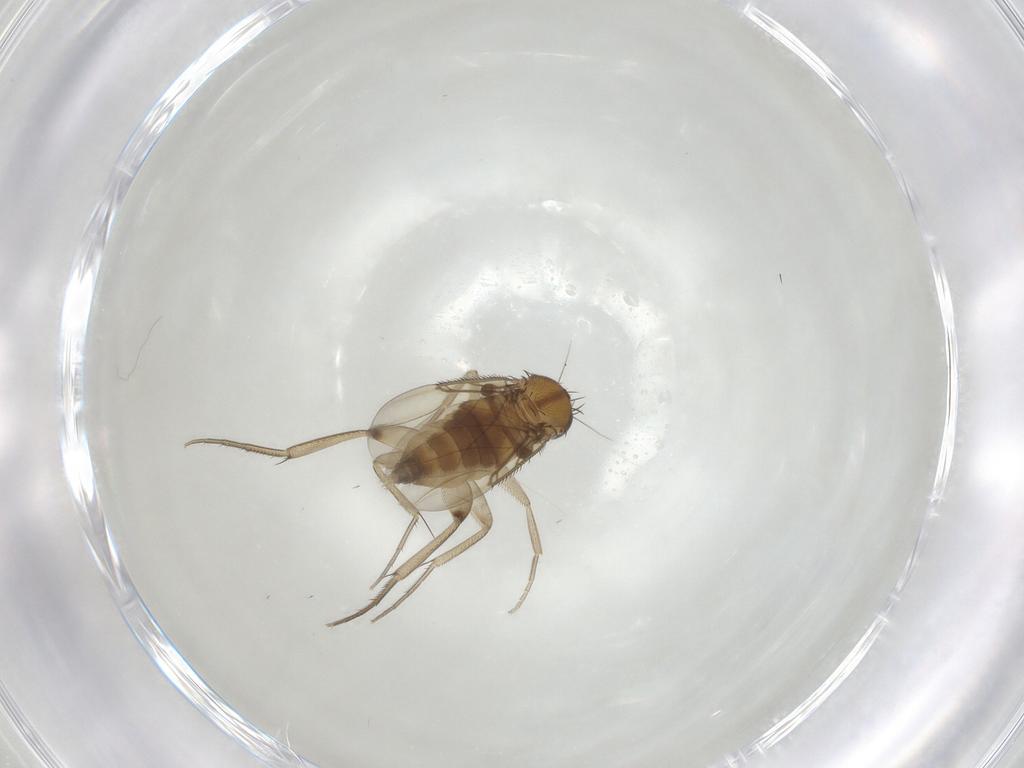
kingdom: Animalia
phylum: Arthropoda
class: Insecta
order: Diptera
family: Phoridae
